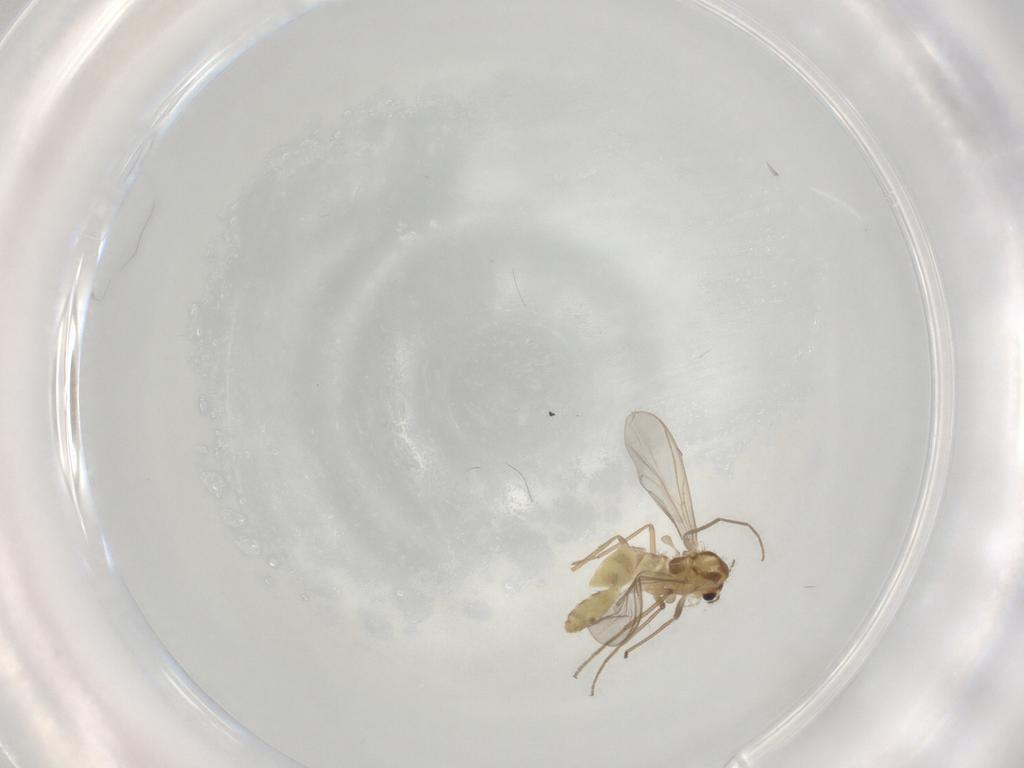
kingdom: Animalia
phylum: Arthropoda
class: Insecta
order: Diptera
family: Chironomidae
